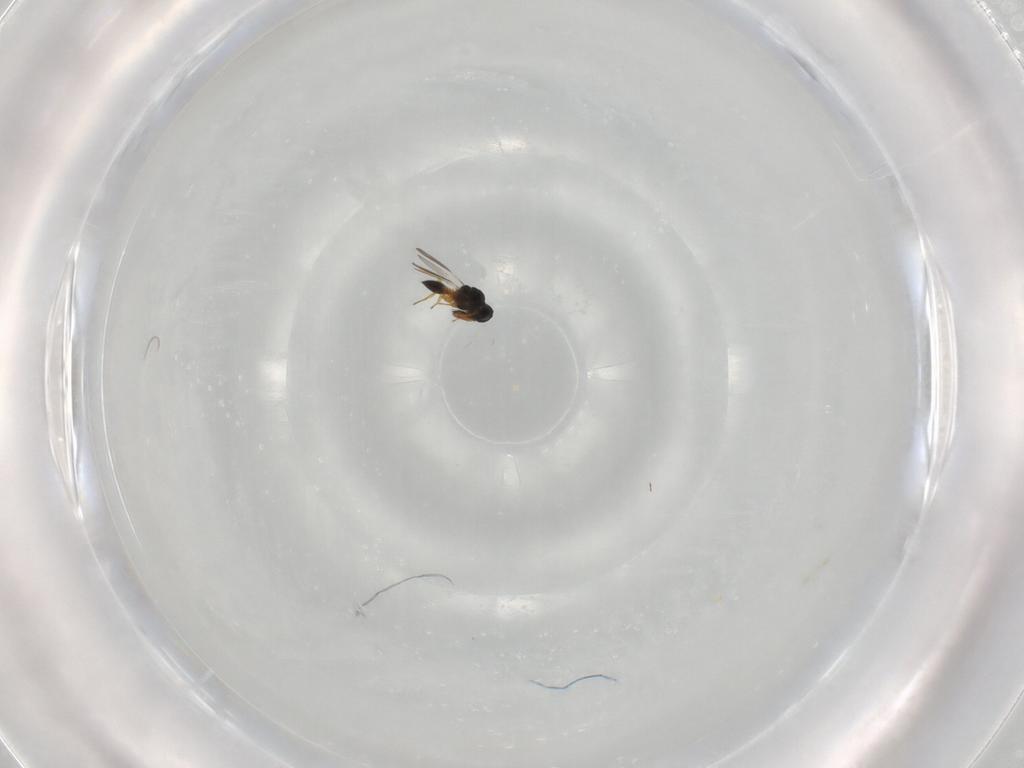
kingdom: Animalia
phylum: Arthropoda
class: Insecta
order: Hymenoptera
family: Platygastridae
